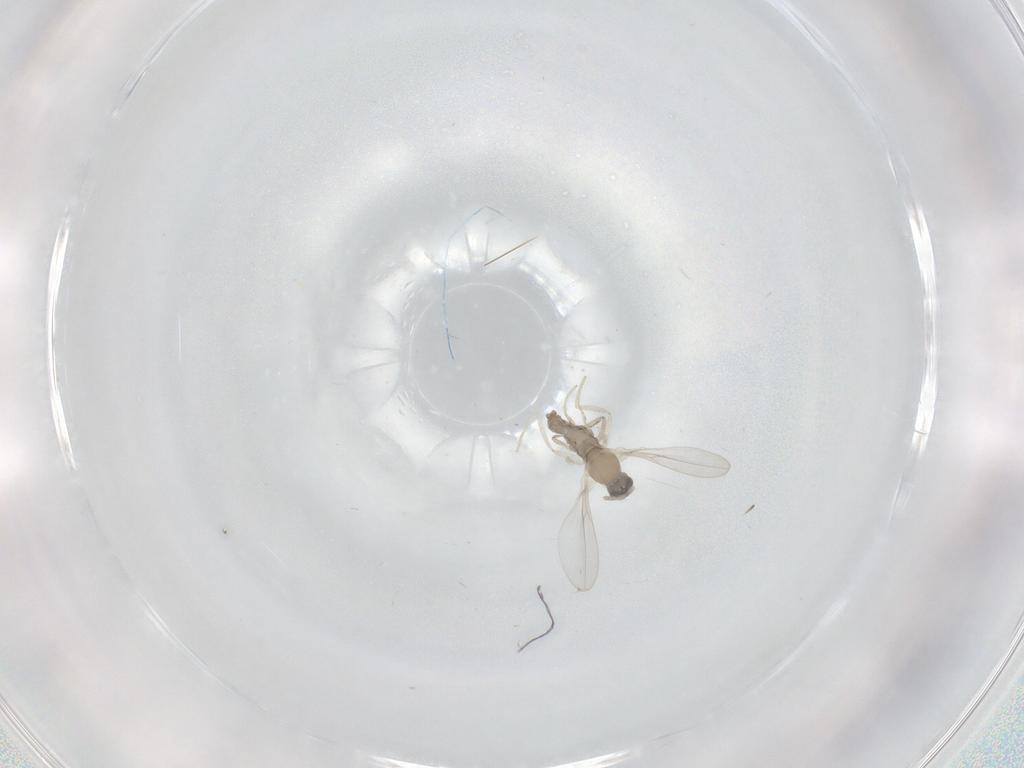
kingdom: Animalia
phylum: Arthropoda
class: Insecta
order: Diptera
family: Cecidomyiidae
